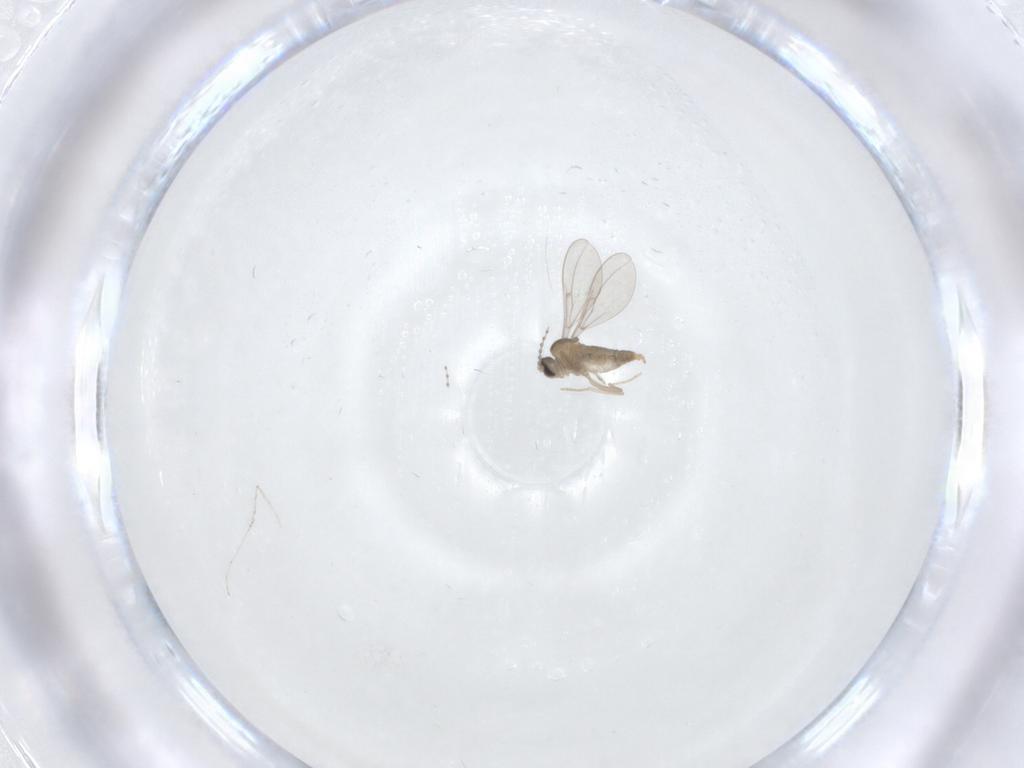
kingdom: Animalia
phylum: Arthropoda
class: Insecta
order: Diptera
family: Cecidomyiidae
